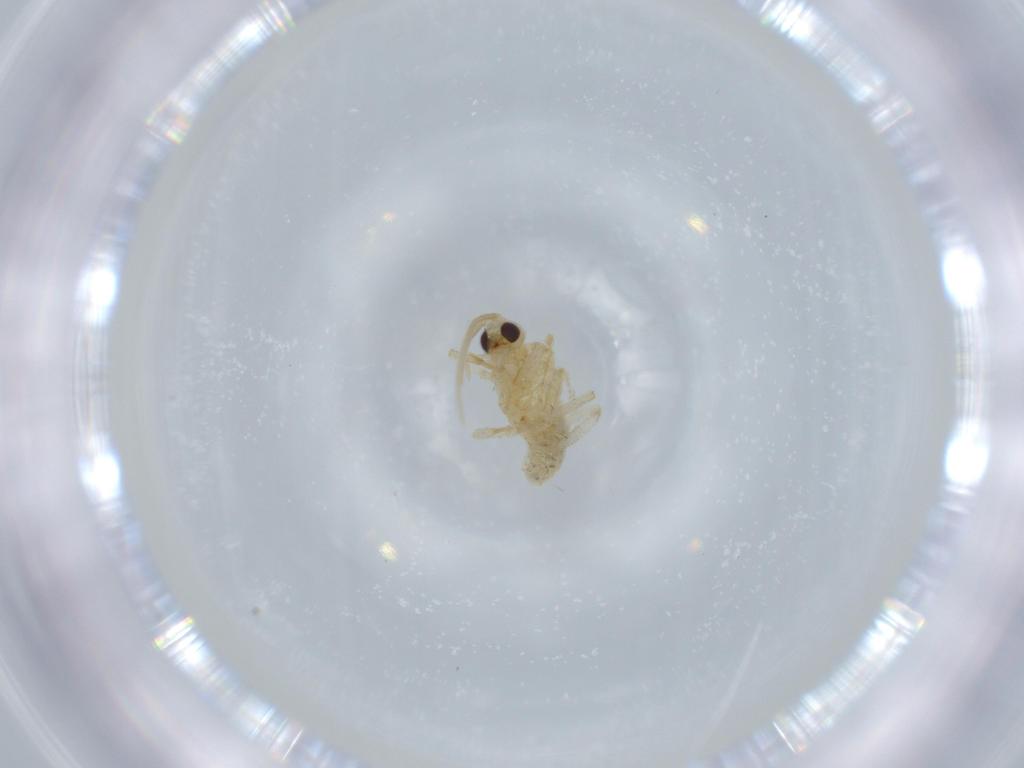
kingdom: Animalia
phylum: Arthropoda
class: Insecta
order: Neuroptera
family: Coniopterygidae
